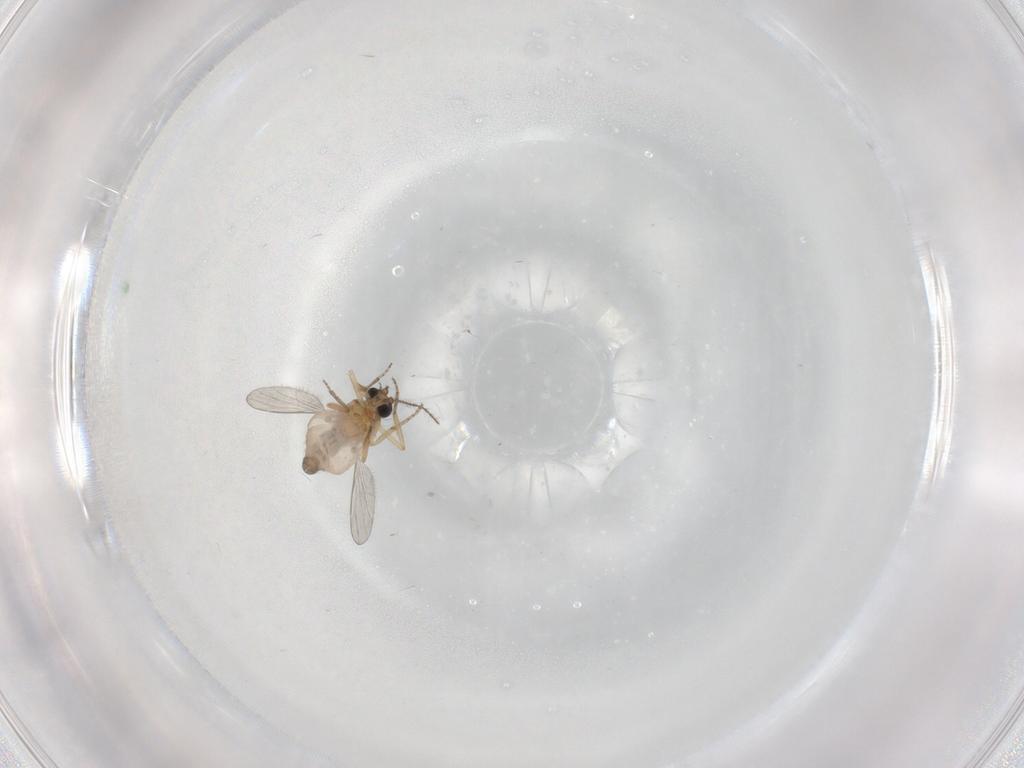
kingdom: Animalia
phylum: Arthropoda
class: Insecta
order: Diptera
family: Ceratopogonidae
